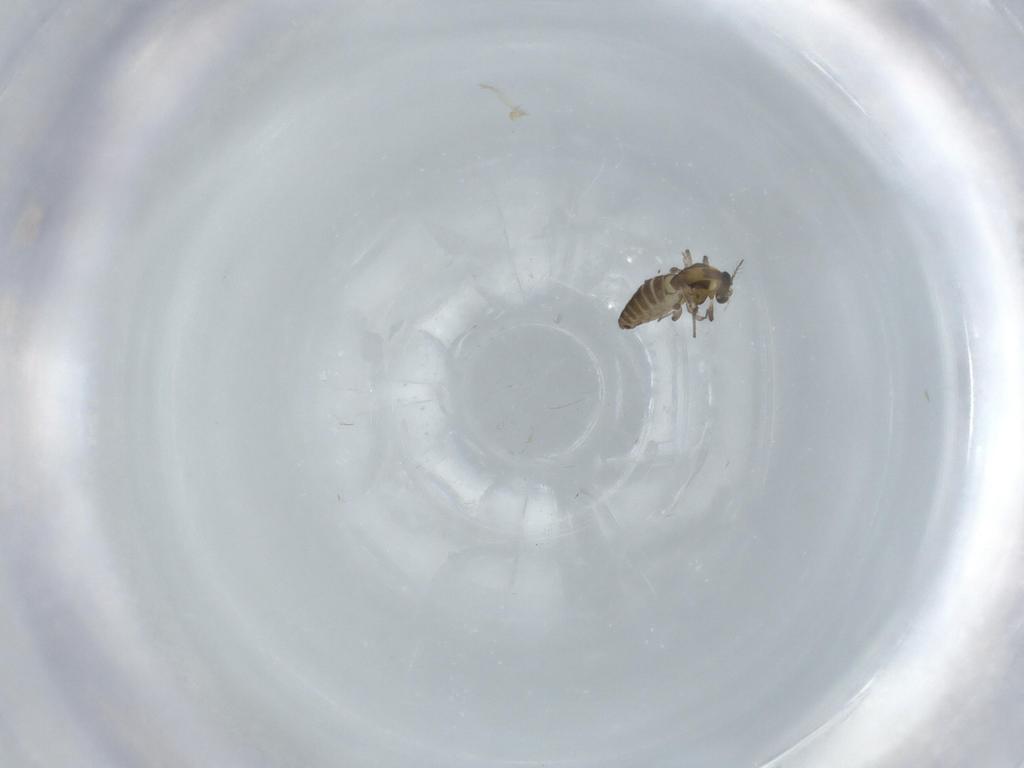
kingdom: Animalia
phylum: Arthropoda
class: Insecta
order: Diptera
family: Chironomidae
